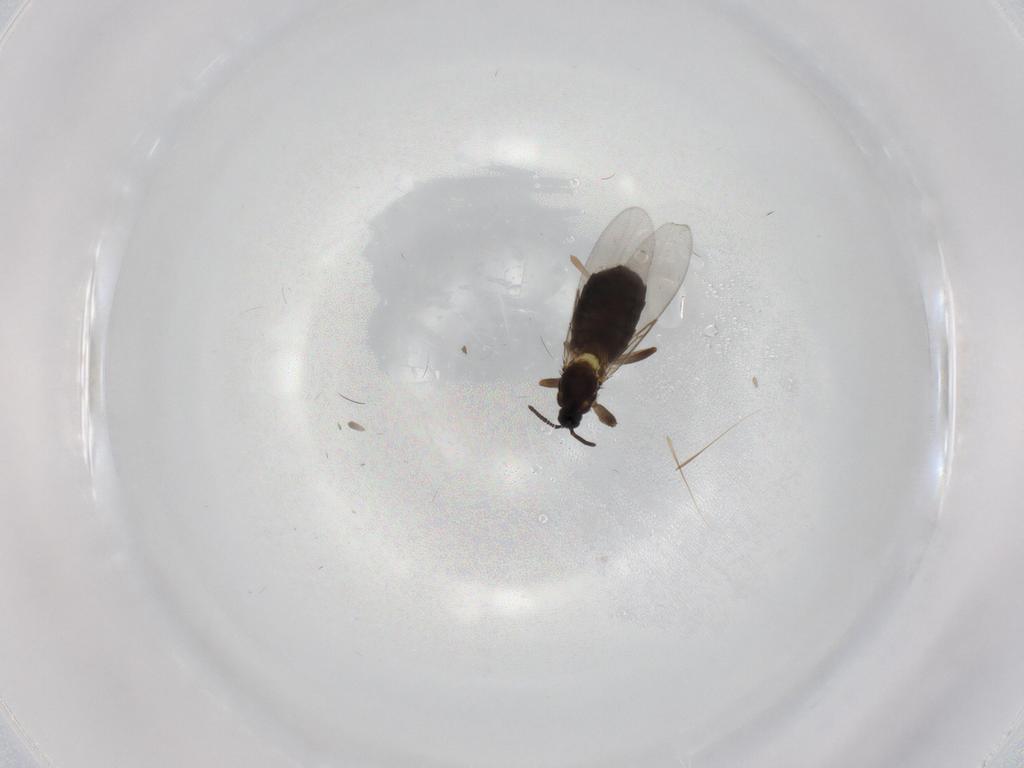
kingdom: Animalia
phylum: Arthropoda
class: Insecta
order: Diptera
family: Scatopsidae
